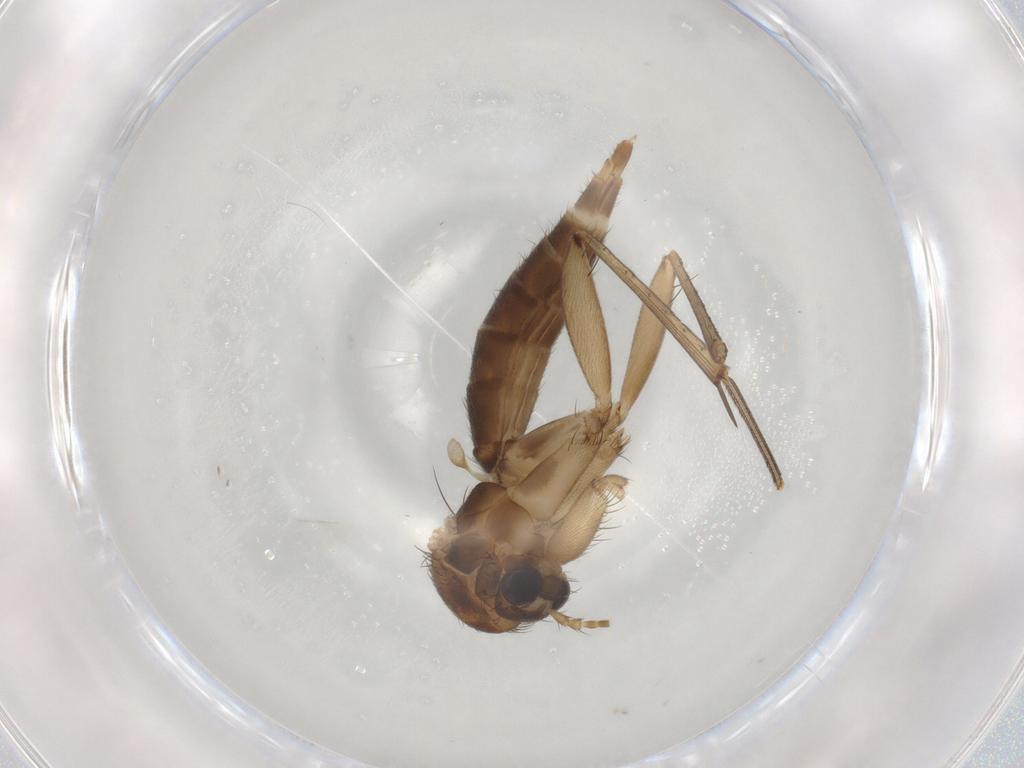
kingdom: Animalia
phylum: Arthropoda
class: Insecta
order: Diptera
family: Mycetophilidae
